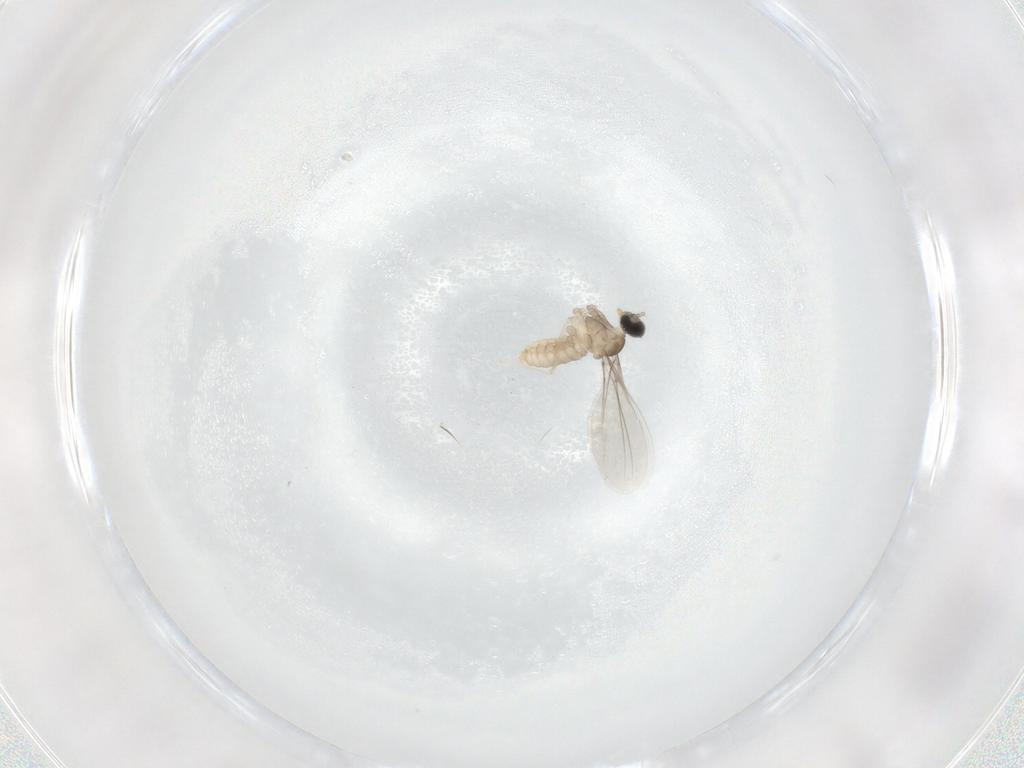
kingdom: Animalia
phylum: Arthropoda
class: Insecta
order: Diptera
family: Cecidomyiidae
